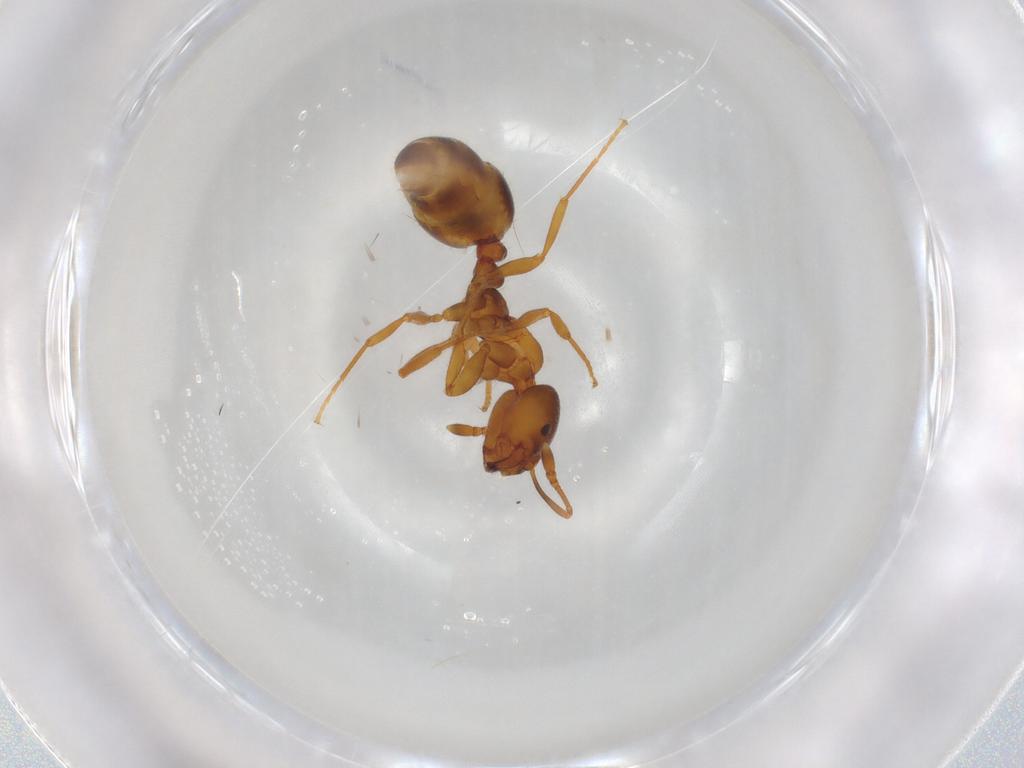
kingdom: Animalia
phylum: Arthropoda
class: Insecta
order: Hymenoptera
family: Formicidae
